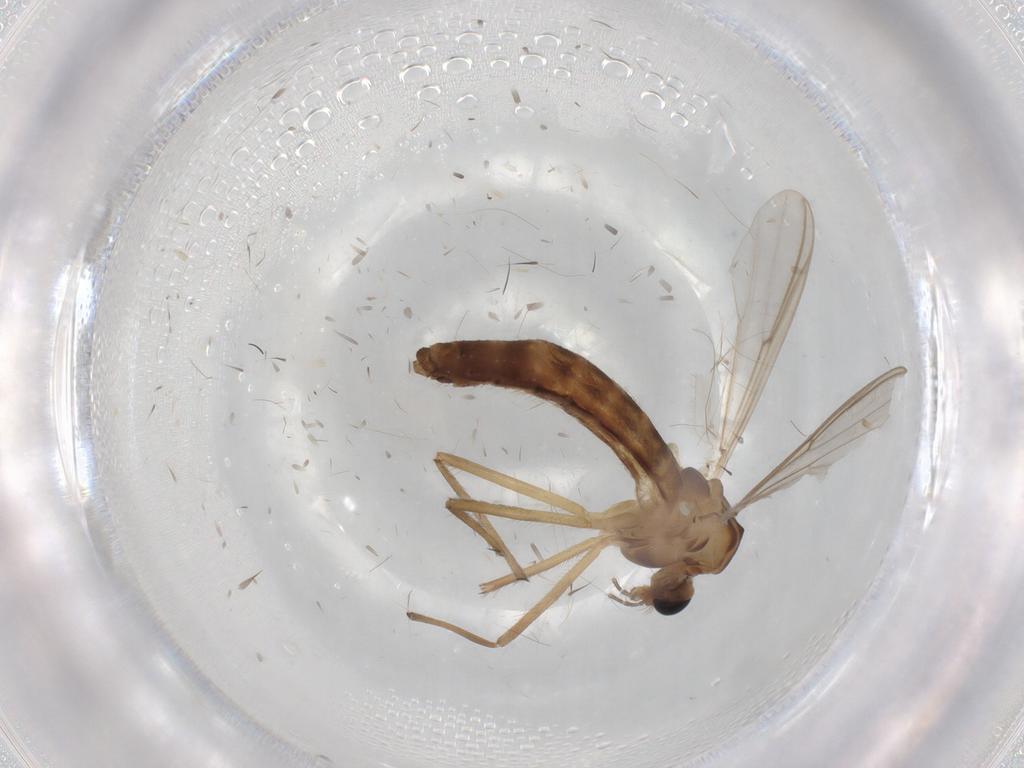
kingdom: Animalia
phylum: Arthropoda
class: Insecta
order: Diptera
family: Chironomidae
